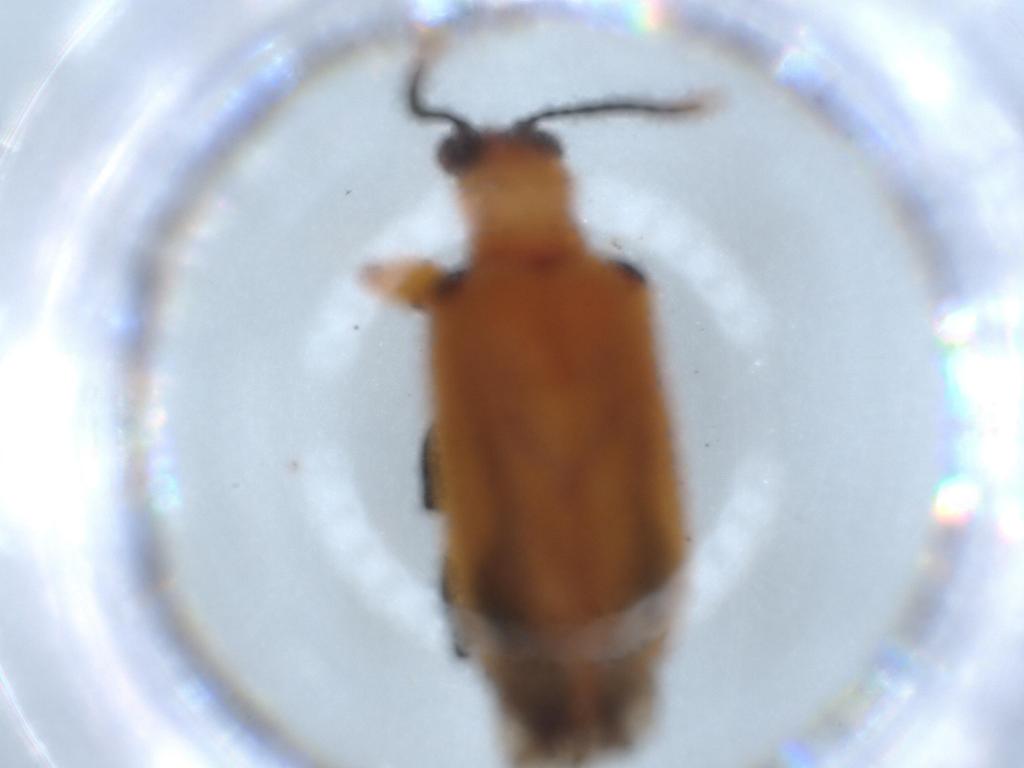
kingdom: Animalia
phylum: Arthropoda
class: Insecta
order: Coleoptera
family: Chrysomelidae
